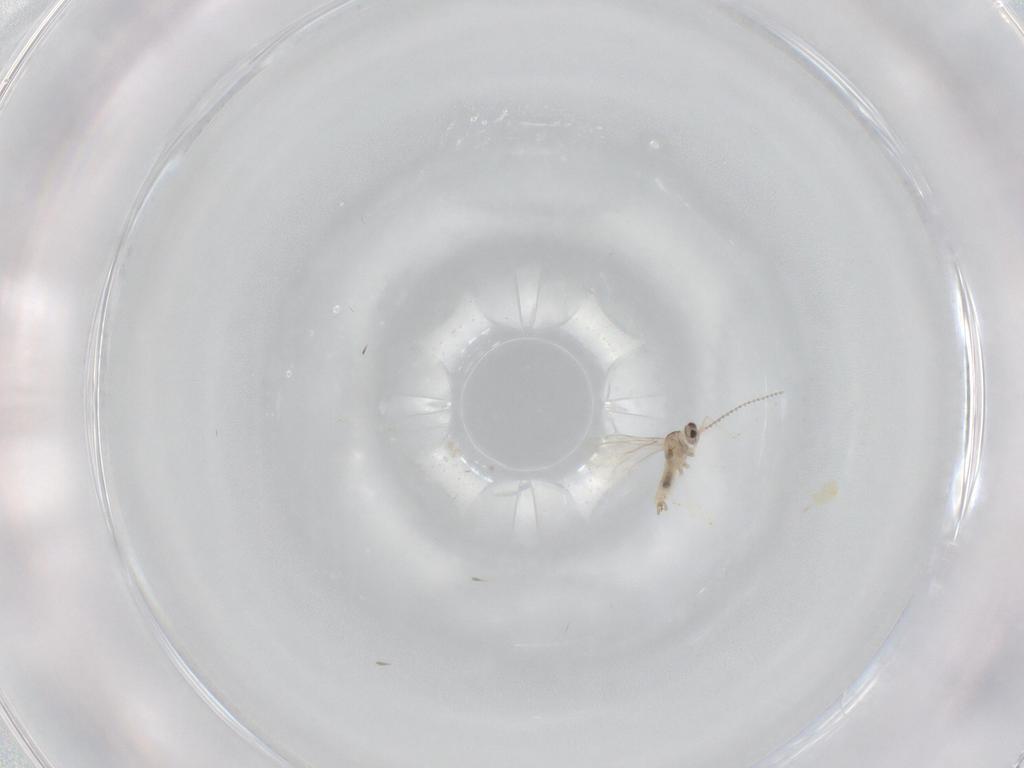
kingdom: Animalia
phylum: Arthropoda
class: Insecta
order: Diptera
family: Cecidomyiidae
